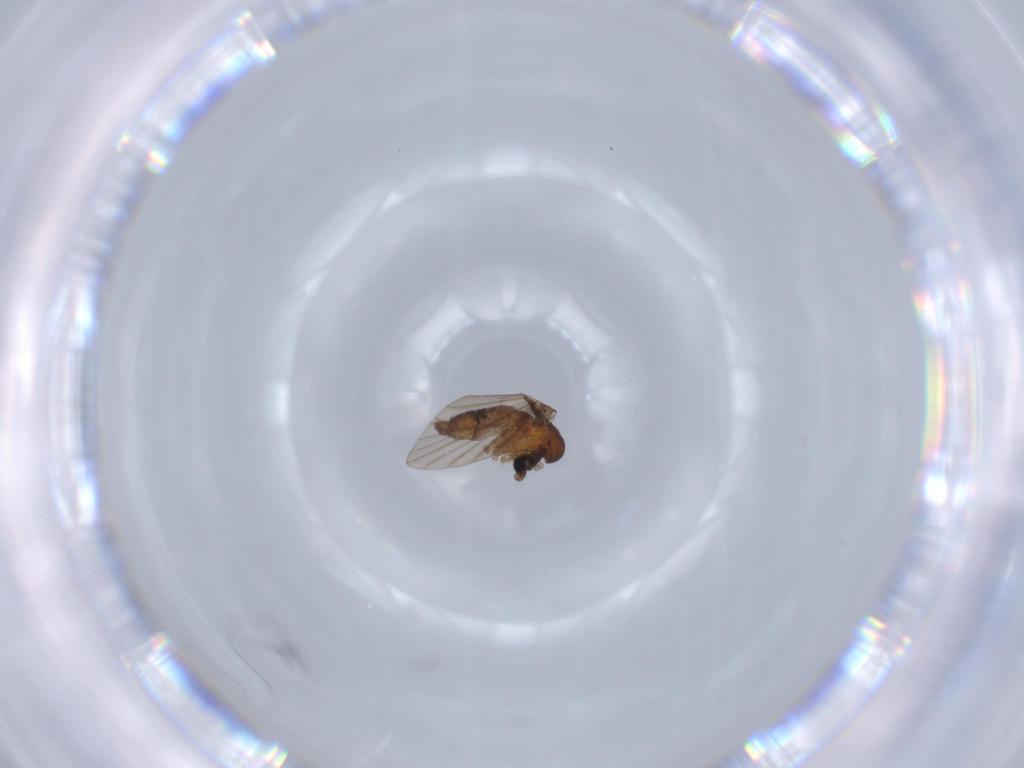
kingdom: Animalia
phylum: Arthropoda
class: Insecta
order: Diptera
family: Psychodidae
